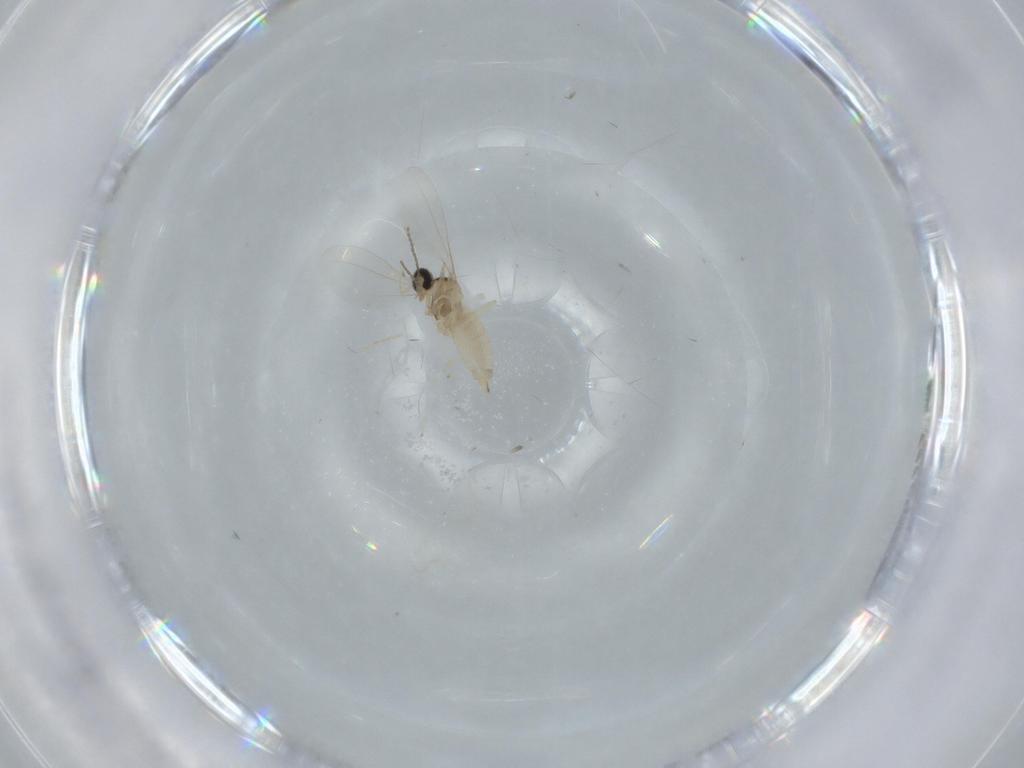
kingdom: Animalia
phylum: Arthropoda
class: Insecta
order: Diptera
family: Cecidomyiidae
